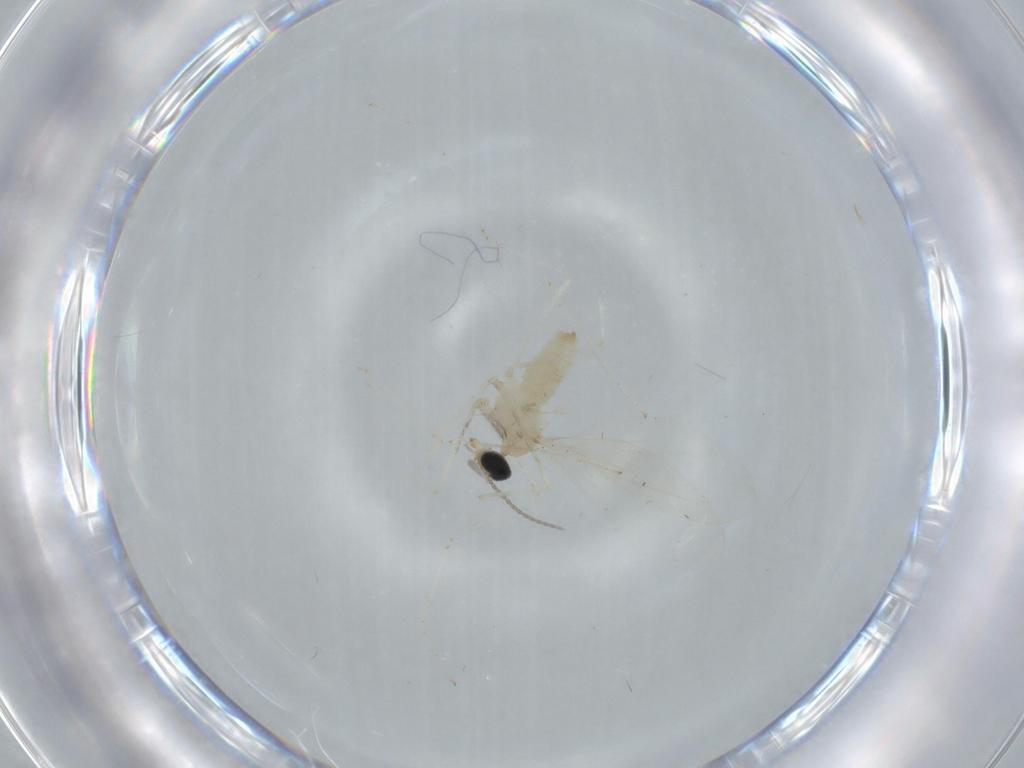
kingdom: Animalia
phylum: Arthropoda
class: Insecta
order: Diptera
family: Cecidomyiidae
